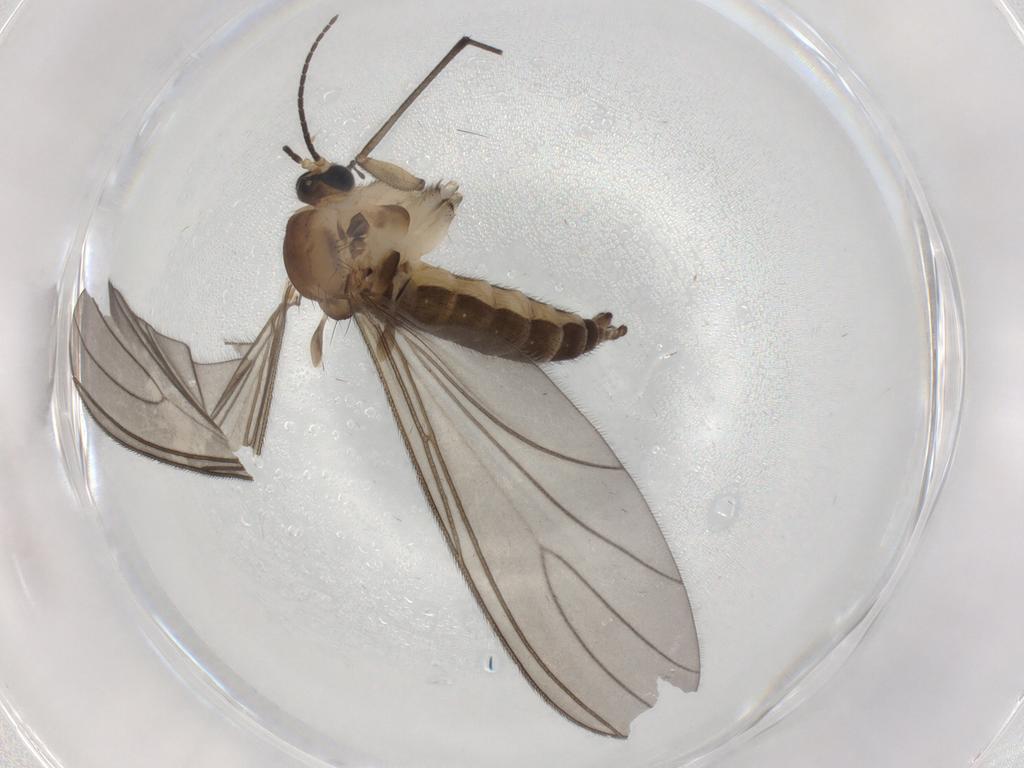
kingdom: Animalia
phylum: Arthropoda
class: Insecta
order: Diptera
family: Sciaridae
